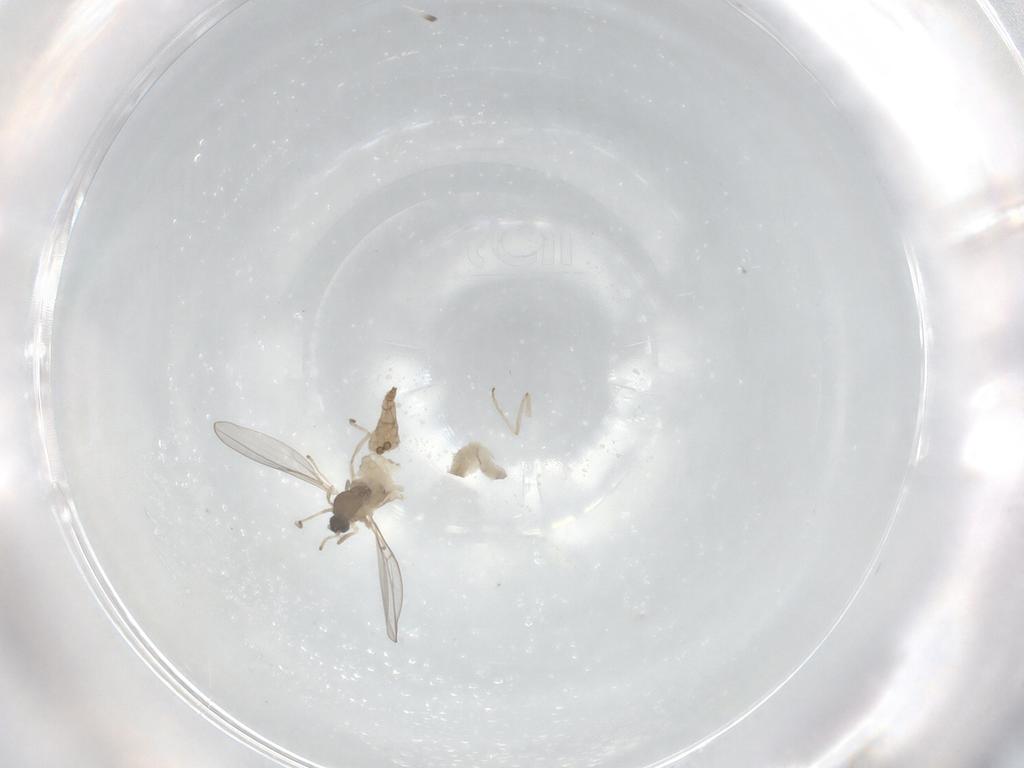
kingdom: Animalia
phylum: Arthropoda
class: Insecta
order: Diptera
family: Cecidomyiidae
